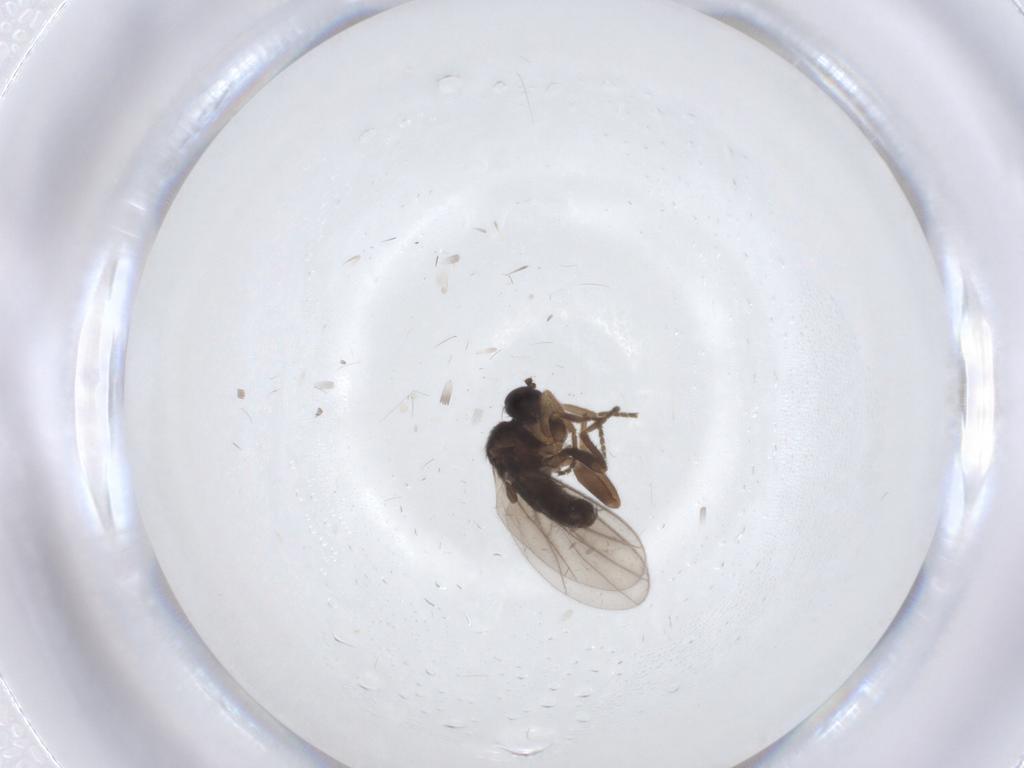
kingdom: Animalia
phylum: Arthropoda
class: Insecta
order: Diptera
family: Hybotidae
